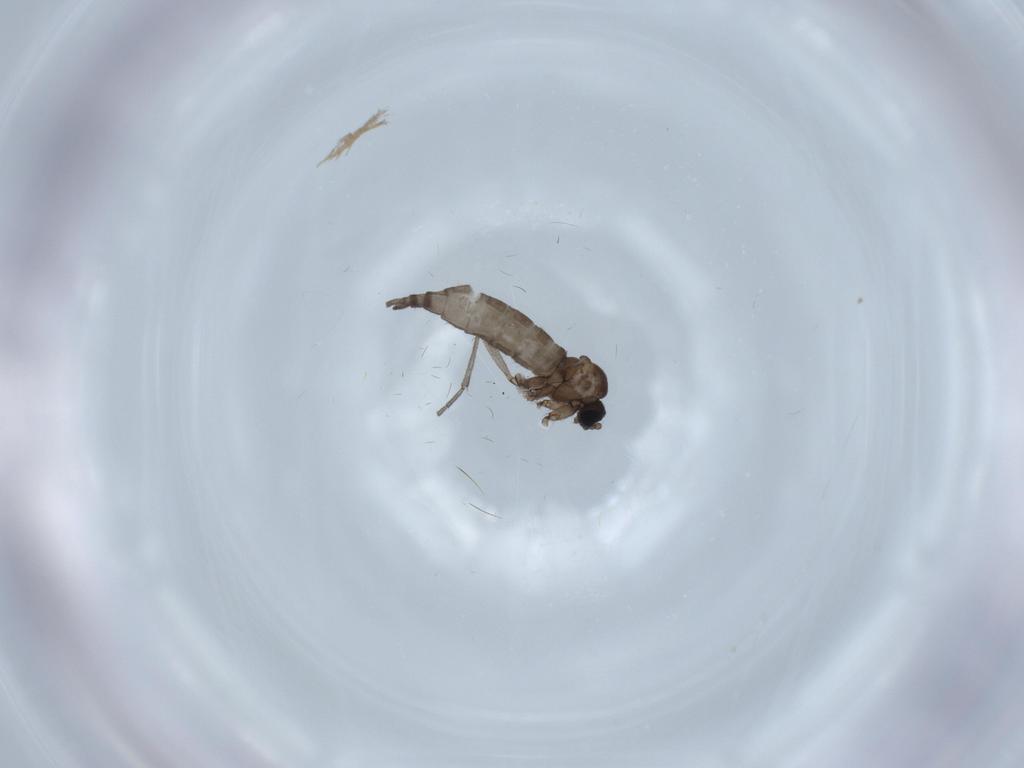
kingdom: Animalia
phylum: Arthropoda
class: Insecta
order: Diptera
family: Sciaridae
